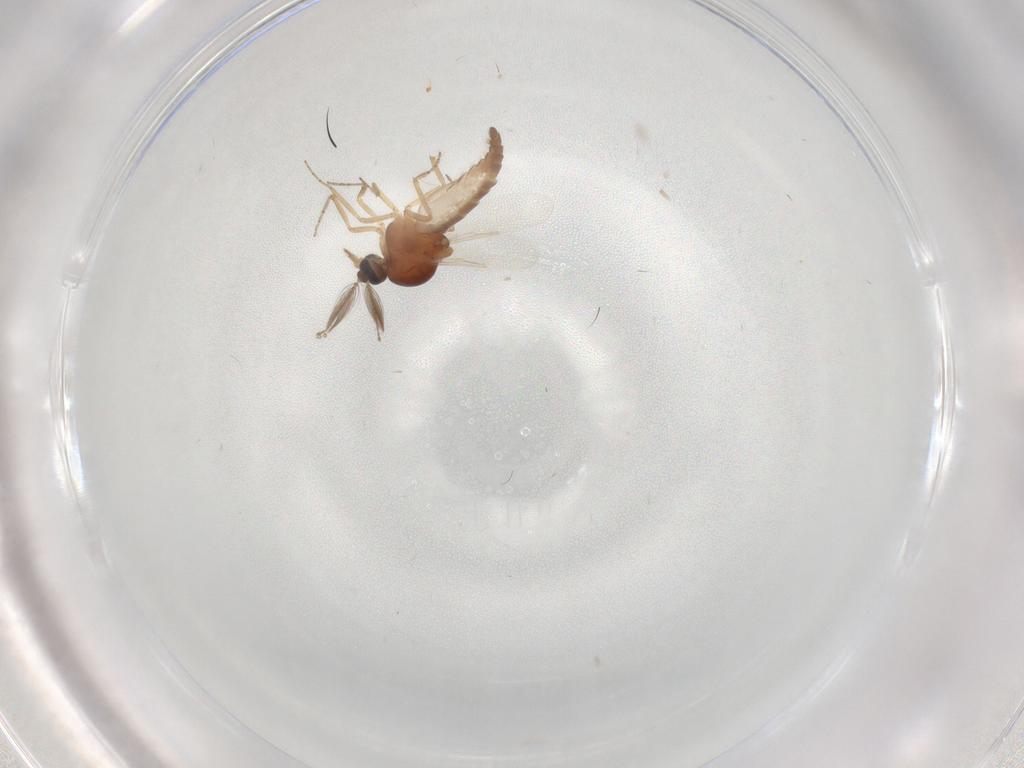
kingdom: Animalia
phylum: Arthropoda
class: Insecta
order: Diptera
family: Ceratopogonidae
